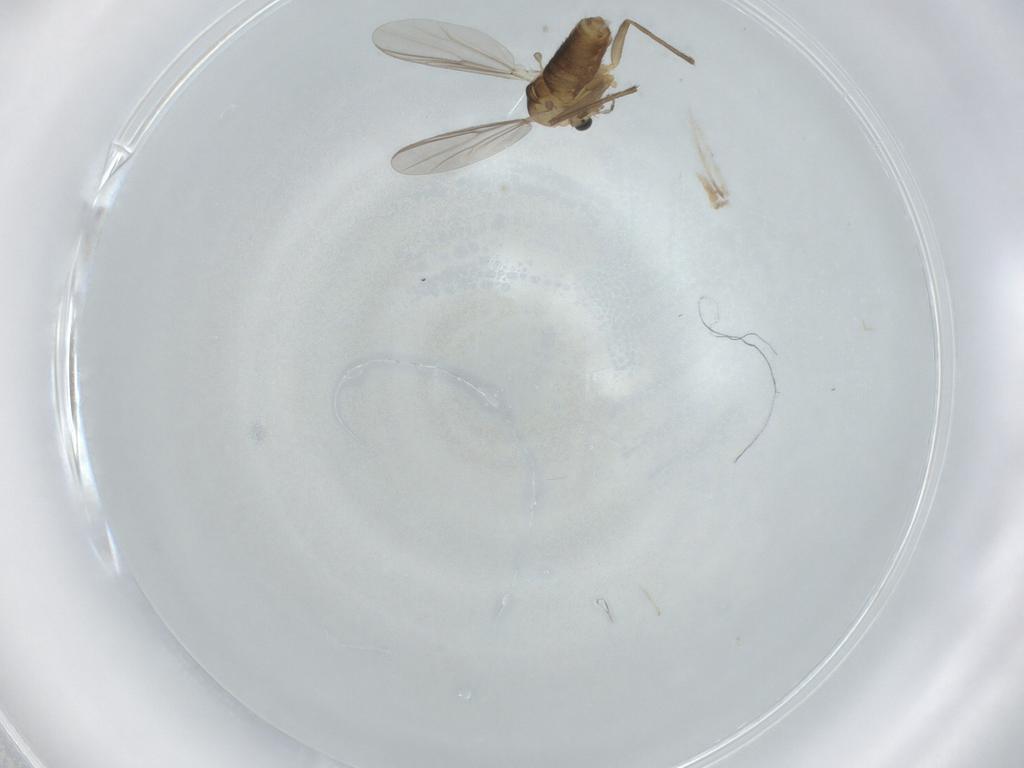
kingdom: Animalia
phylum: Arthropoda
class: Insecta
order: Diptera
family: Chironomidae
